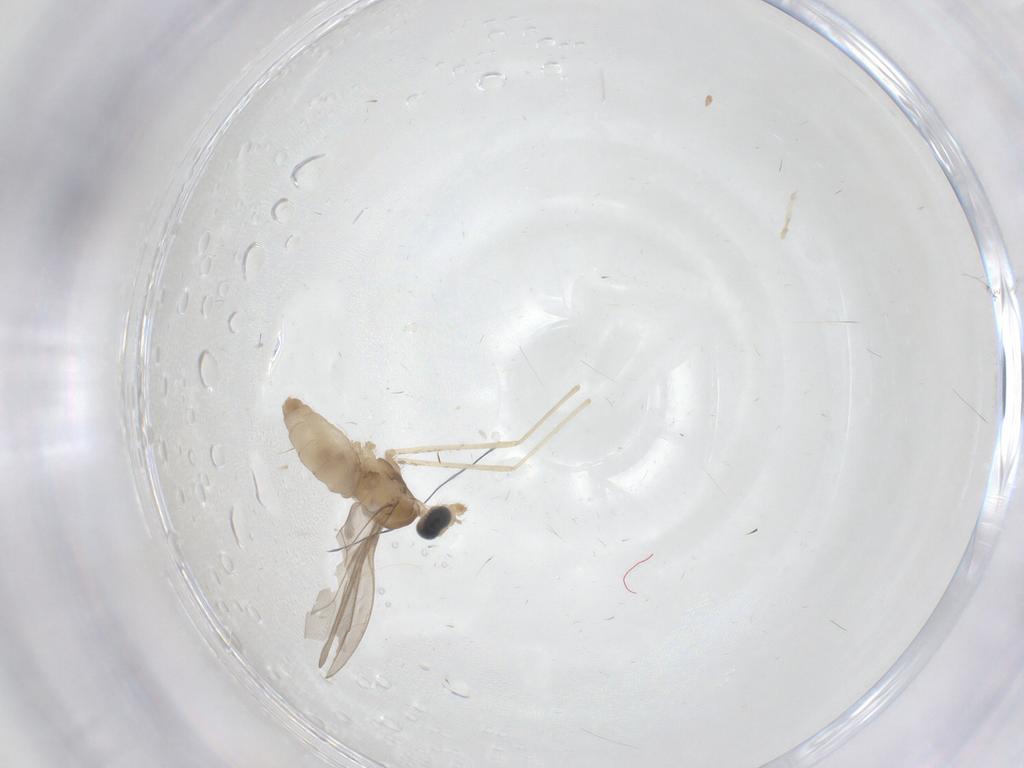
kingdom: Animalia
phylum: Arthropoda
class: Insecta
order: Diptera
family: Cecidomyiidae
